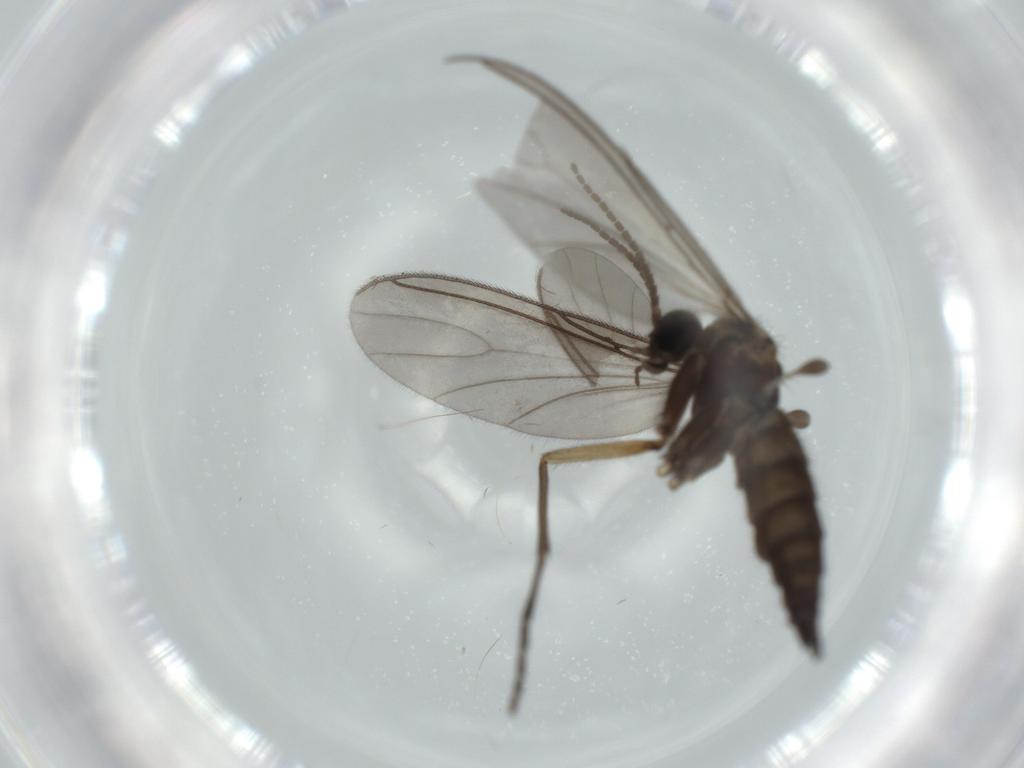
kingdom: Animalia
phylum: Arthropoda
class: Insecta
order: Diptera
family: Sciaridae
